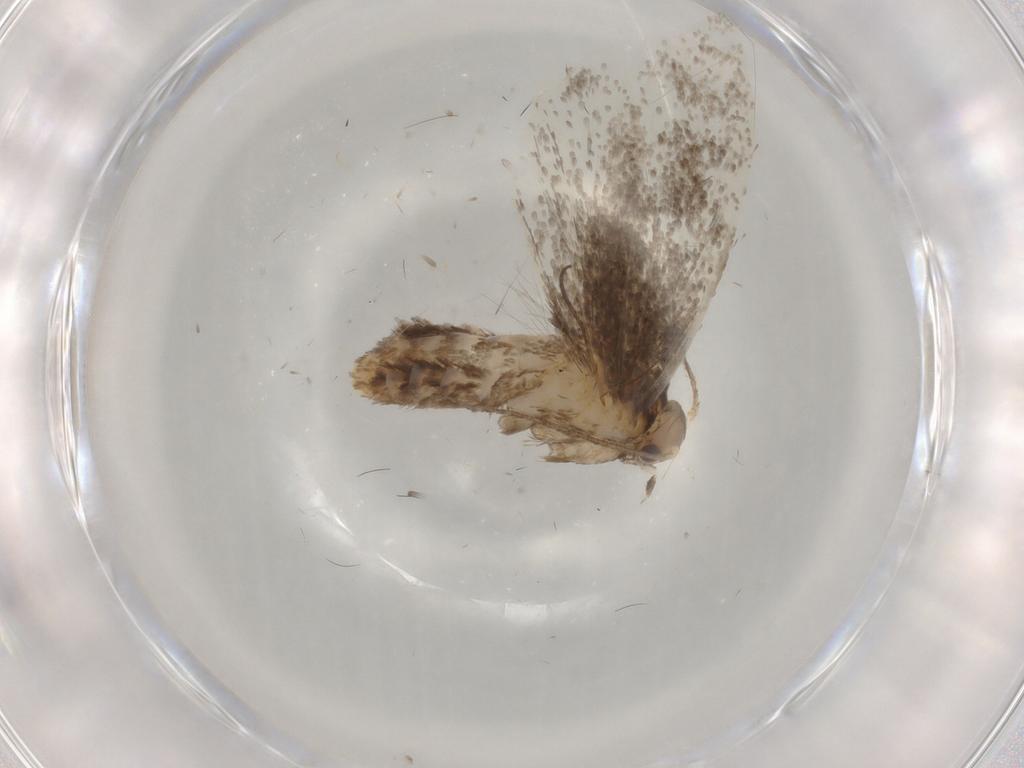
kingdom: Animalia
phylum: Arthropoda
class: Insecta
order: Lepidoptera
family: Dryadaulidae
